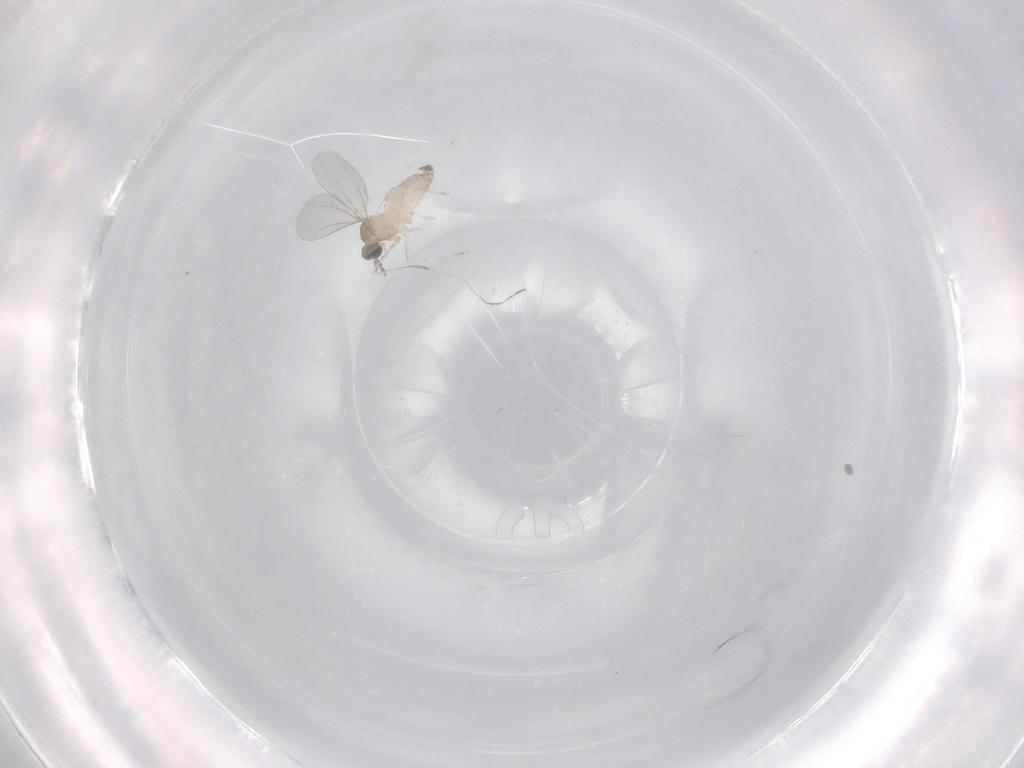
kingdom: Animalia
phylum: Arthropoda
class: Insecta
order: Diptera
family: Chironomidae
